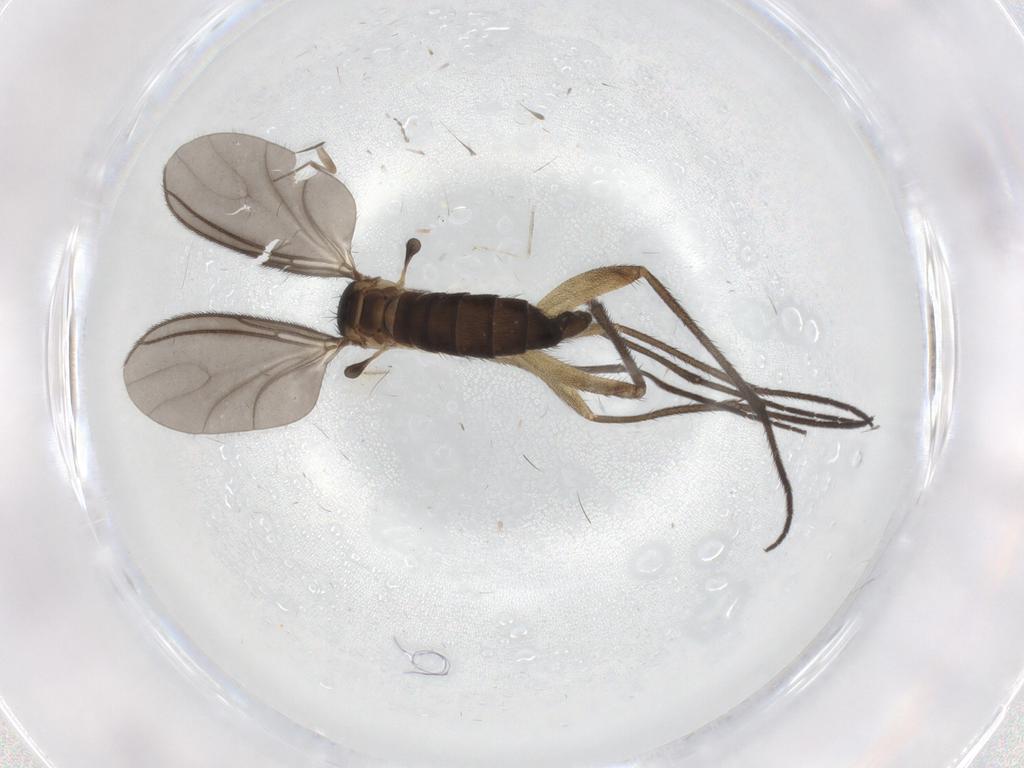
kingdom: Animalia
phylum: Arthropoda
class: Insecta
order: Diptera
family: Sciaridae
